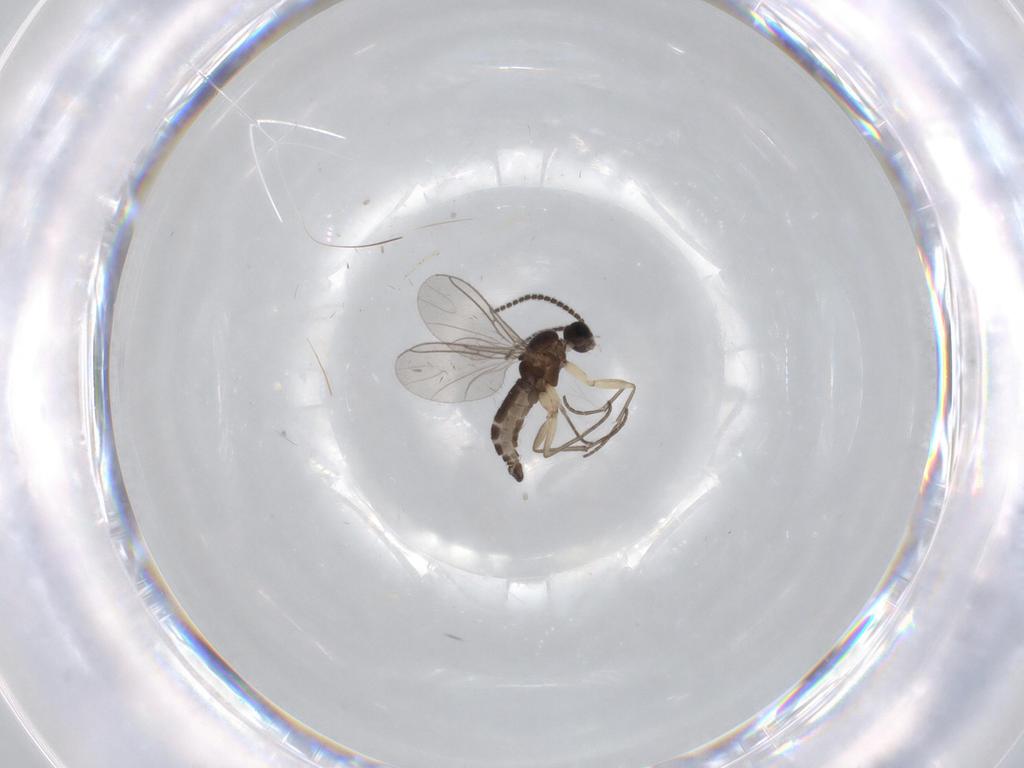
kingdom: Animalia
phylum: Arthropoda
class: Insecta
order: Diptera
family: Sciaridae
